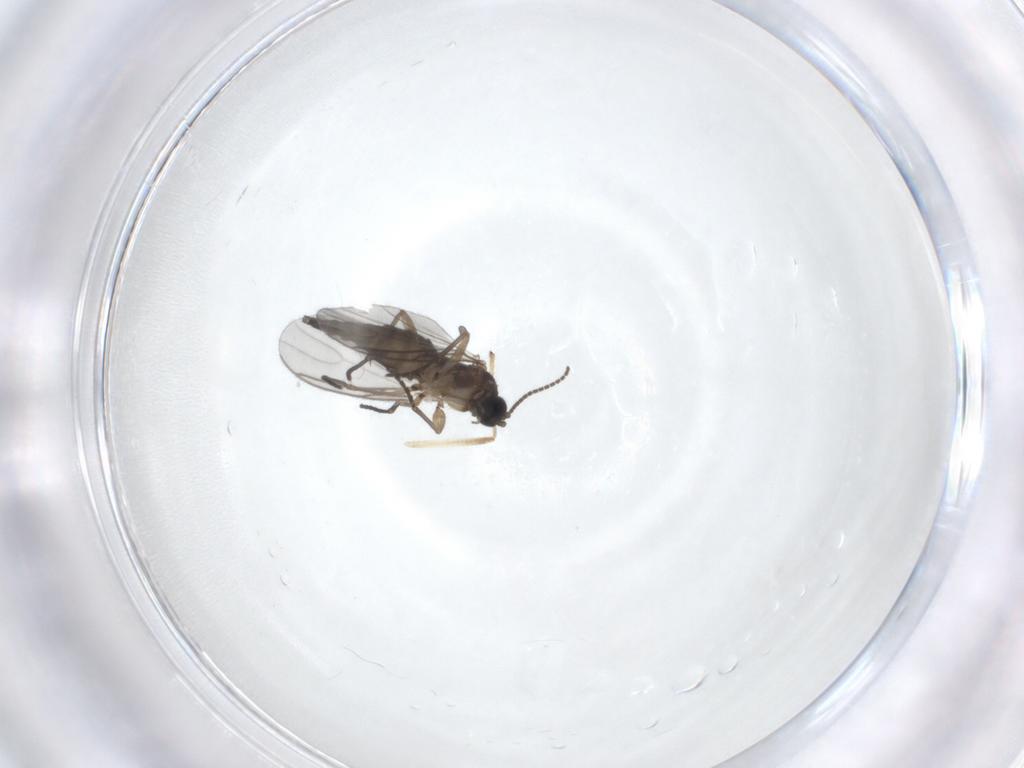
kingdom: Animalia
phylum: Arthropoda
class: Insecta
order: Diptera
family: Sciaridae
